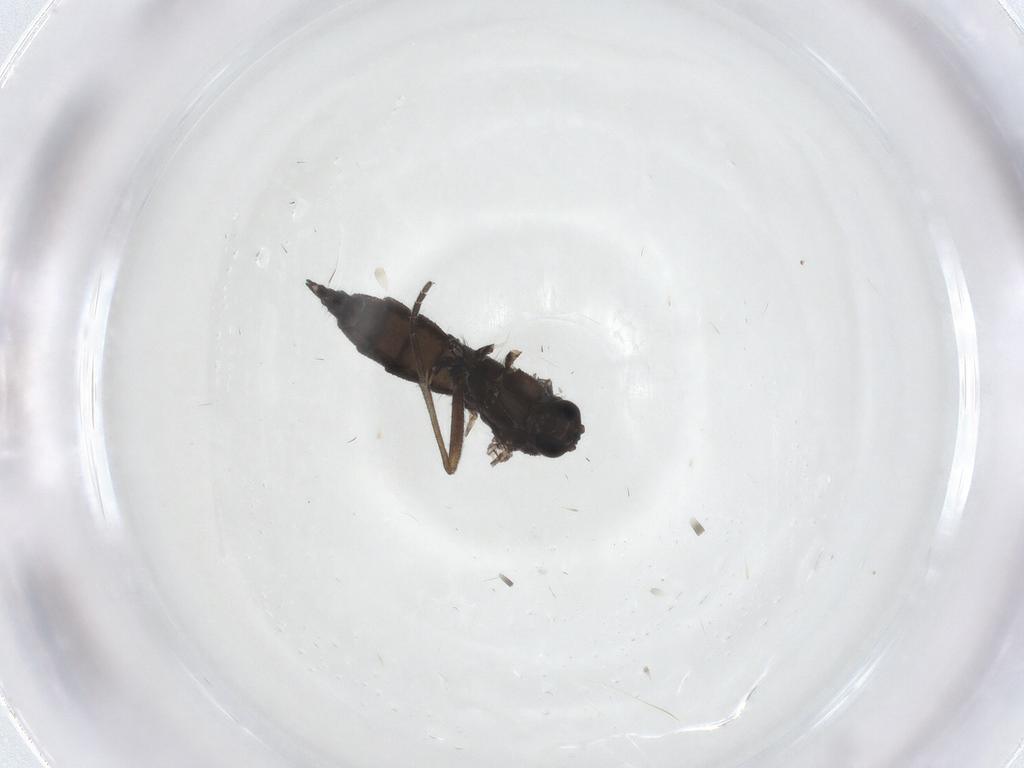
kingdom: Animalia
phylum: Arthropoda
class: Insecta
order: Diptera
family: Sciaridae
